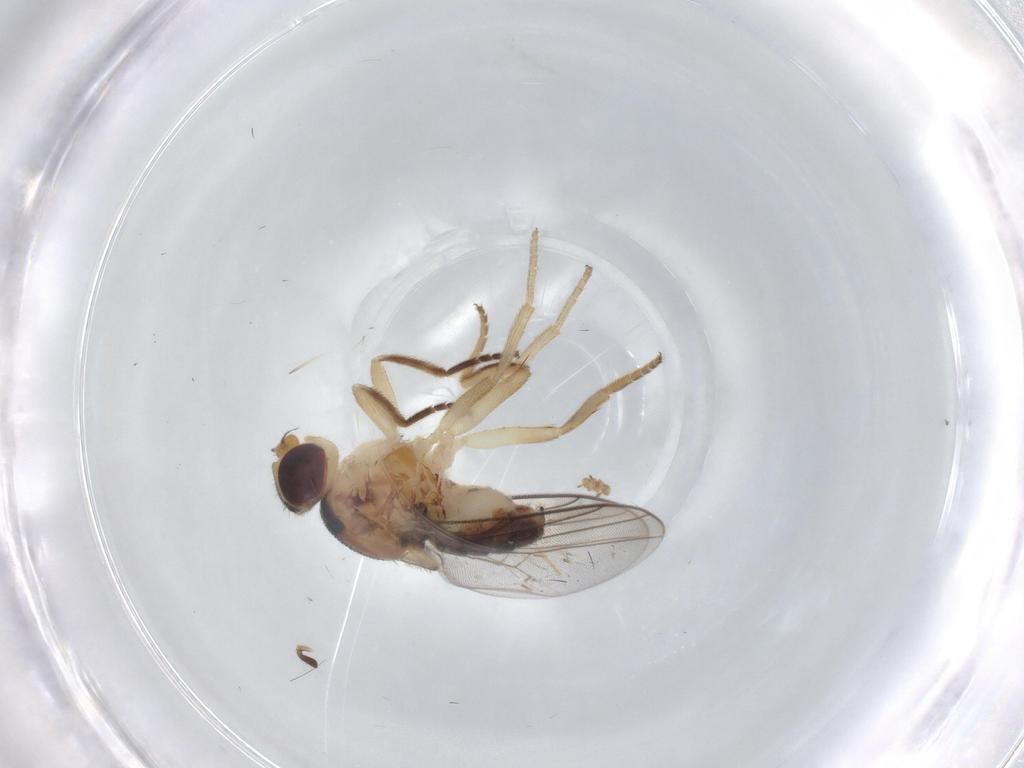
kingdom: Animalia
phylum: Arthropoda
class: Insecta
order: Diptera
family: Chloropidae
